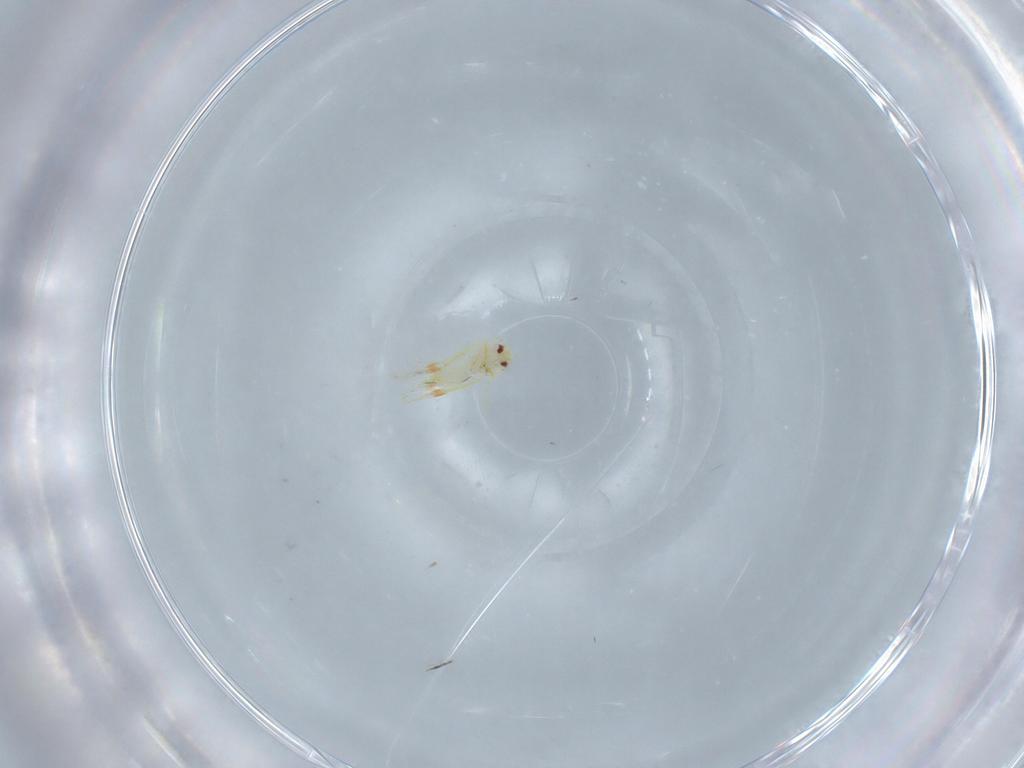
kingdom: Animalia
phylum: Arthropoda
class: Insecta
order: Hemiptera
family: Aleyrodidae
